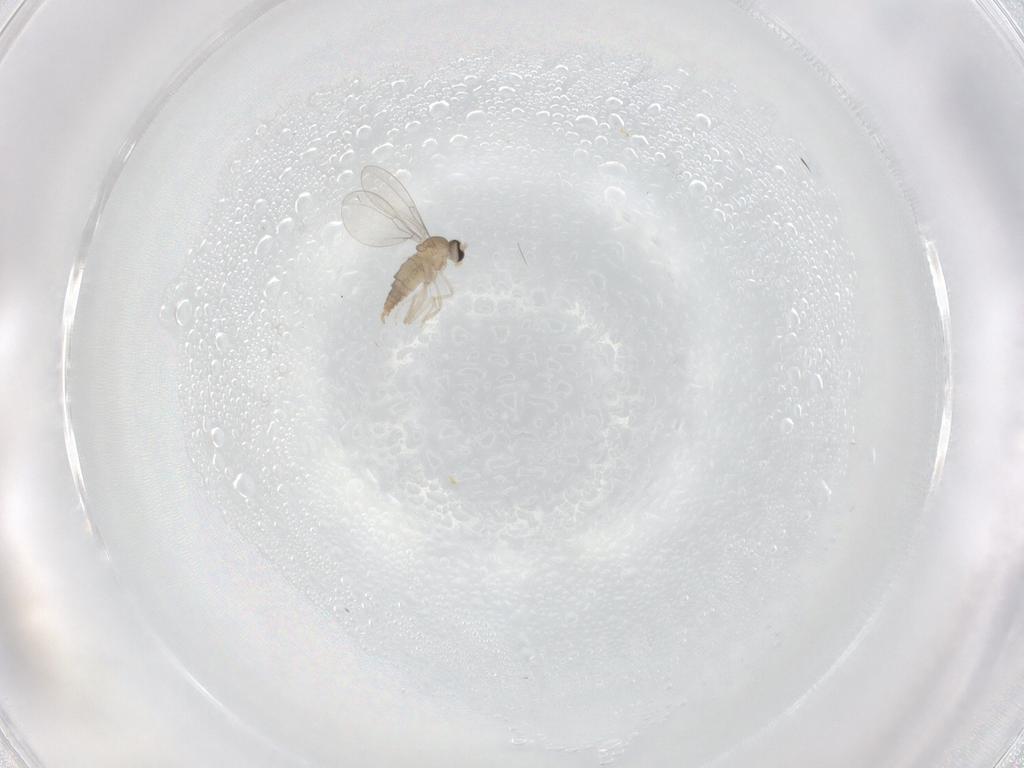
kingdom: Animalia
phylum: Arthropoda
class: Insecta
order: Diptera
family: Cecidomyiidae
